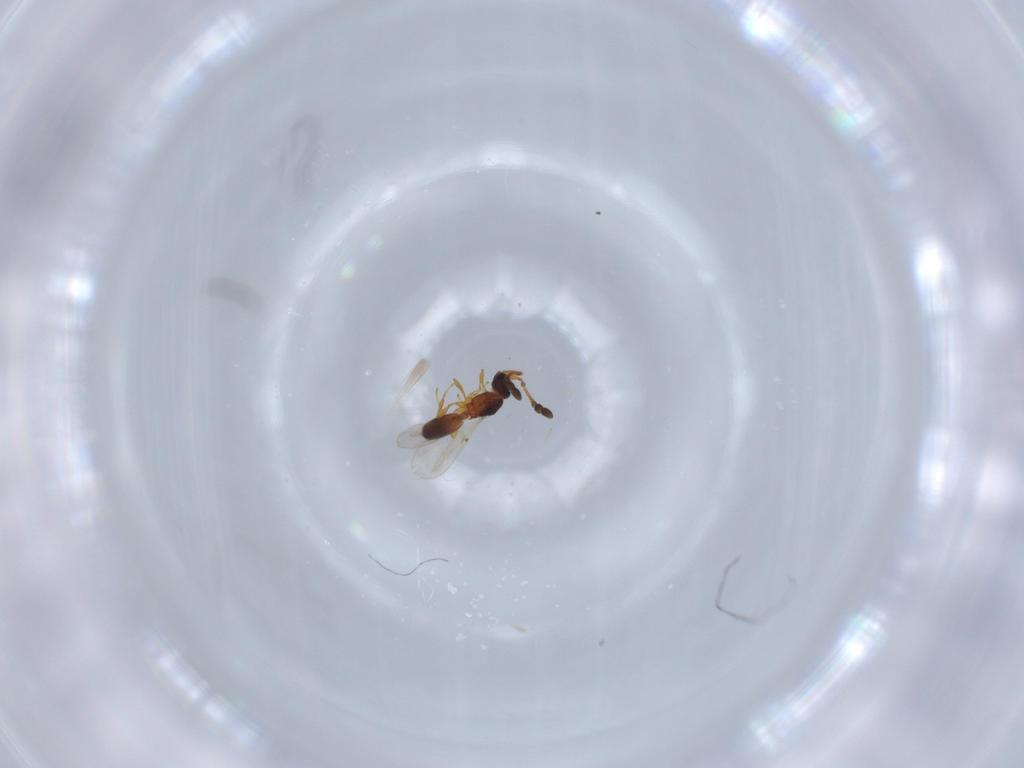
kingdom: Animalia
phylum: Arthropoda
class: Insecta
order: Hymenoptera
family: Diapriidae
